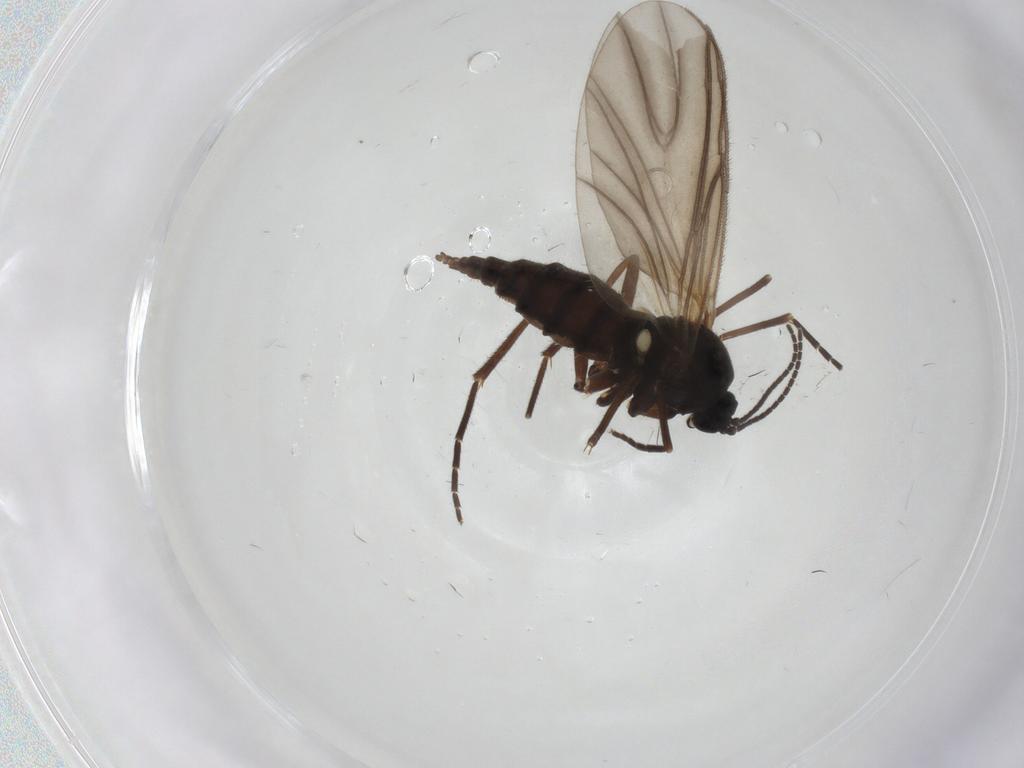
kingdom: Animalia
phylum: Arthropoda
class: Insecta
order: Diptera
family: Sciaridae
